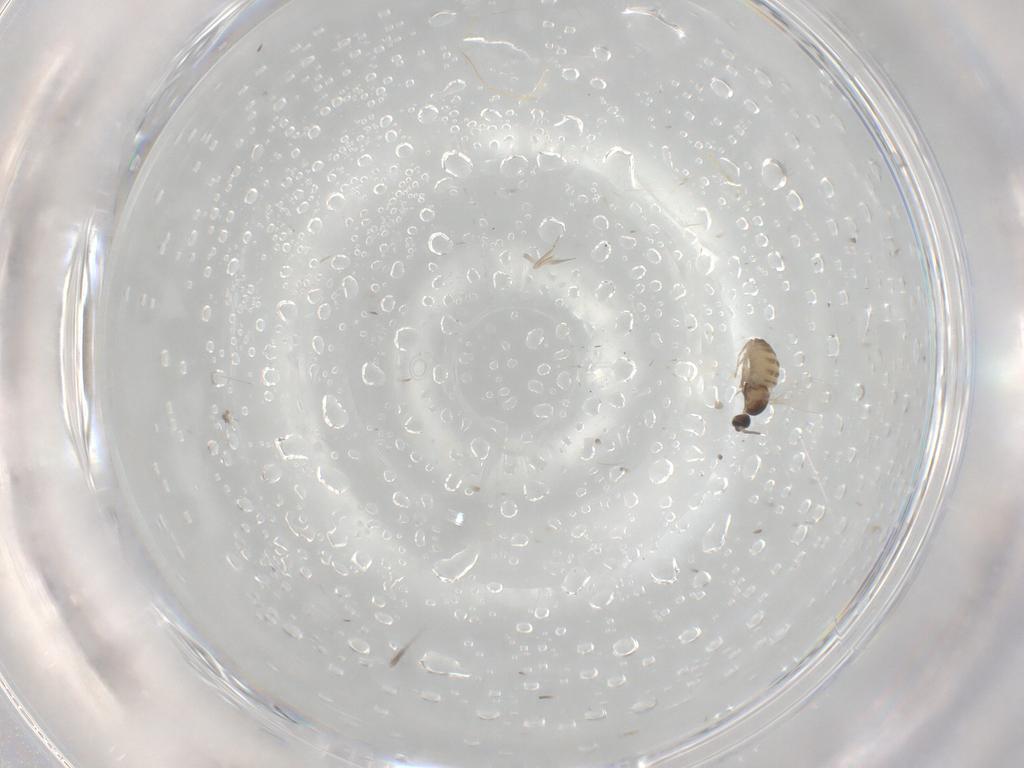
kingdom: Animalia
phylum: Arthropoda
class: Insecta
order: Diptera
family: Cecidomyiidae
